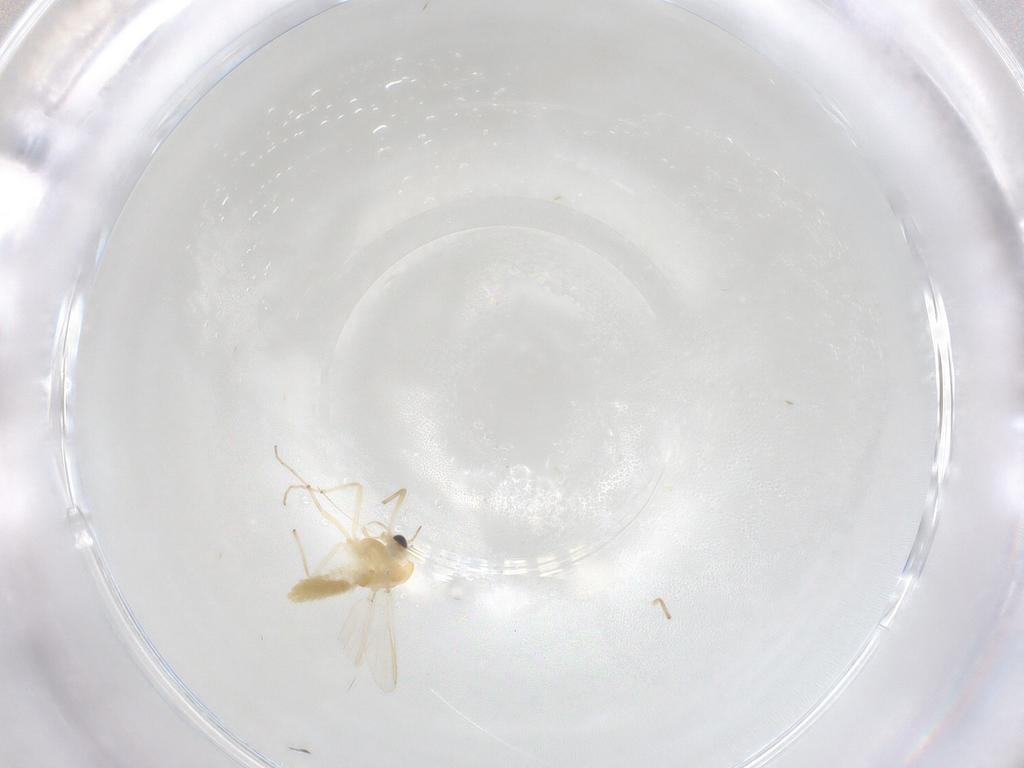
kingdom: Animalia
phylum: Arthropoda
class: Insecta
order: Diptera
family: Chironomidae
